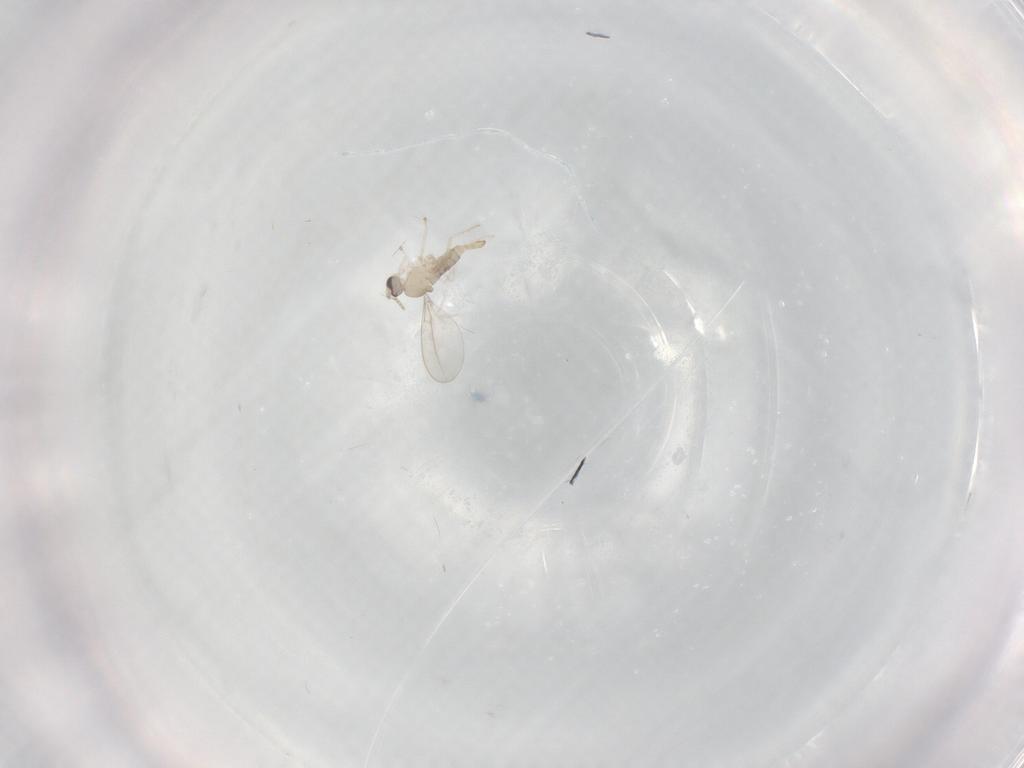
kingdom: Animalia
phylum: Arthropoda
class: Insecta
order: Diptera
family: Cecidomyiidae
